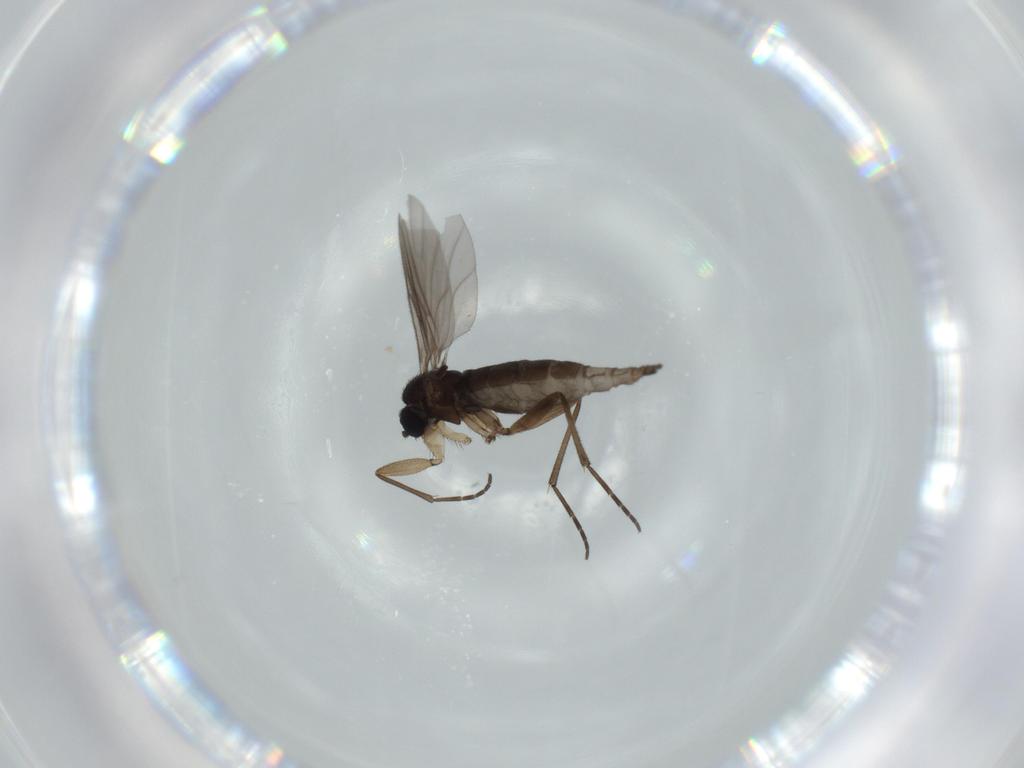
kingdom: Animalia
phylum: Arthropoda
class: Insecta
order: Diptera
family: Sciaridae
